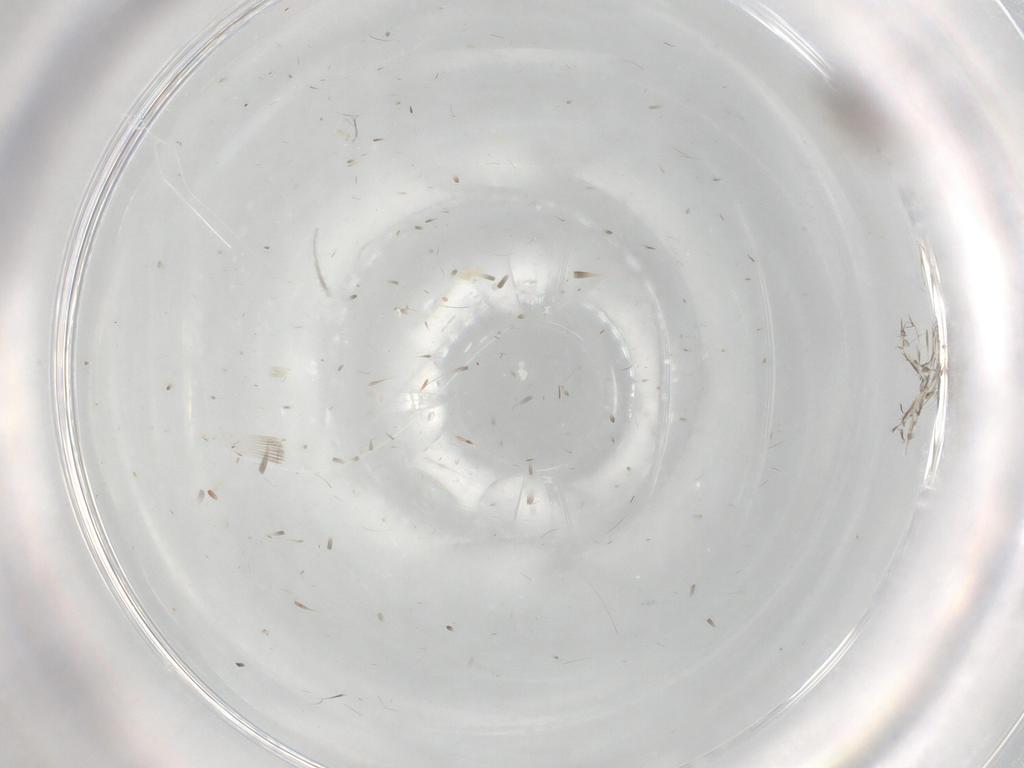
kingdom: Animalia
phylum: Arthropoda
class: Insecta
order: Diptera
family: Cecidomyiidae
